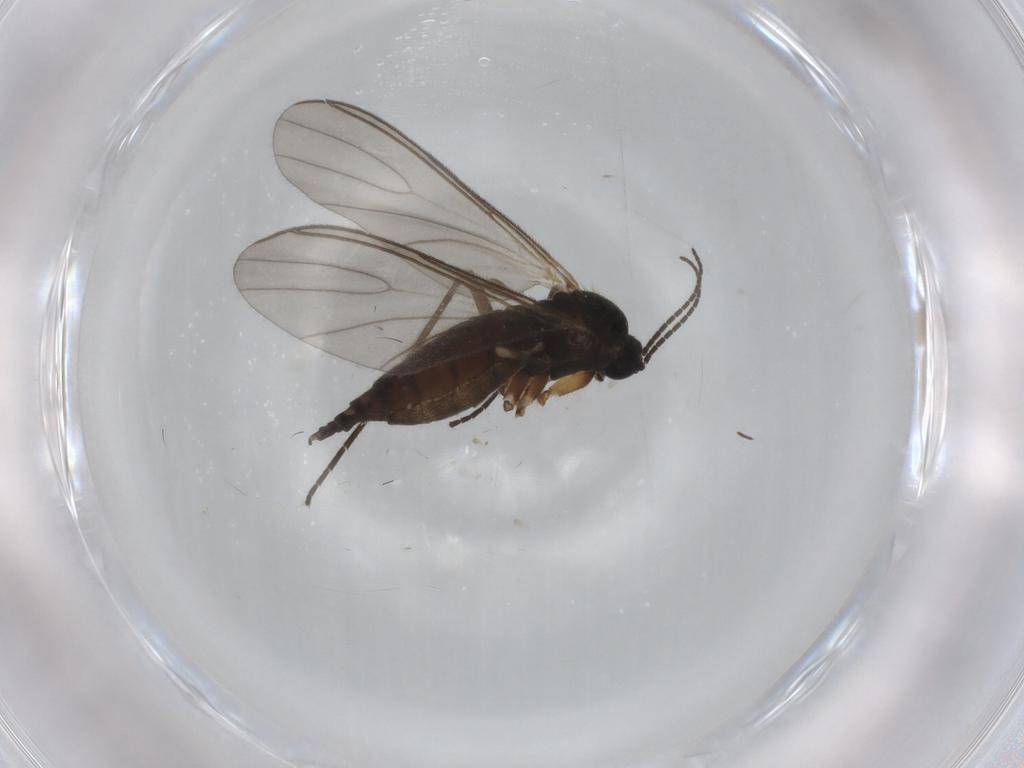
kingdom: Animalia
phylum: Arthropoda
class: Insecta
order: Diptera
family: Sciaridae
